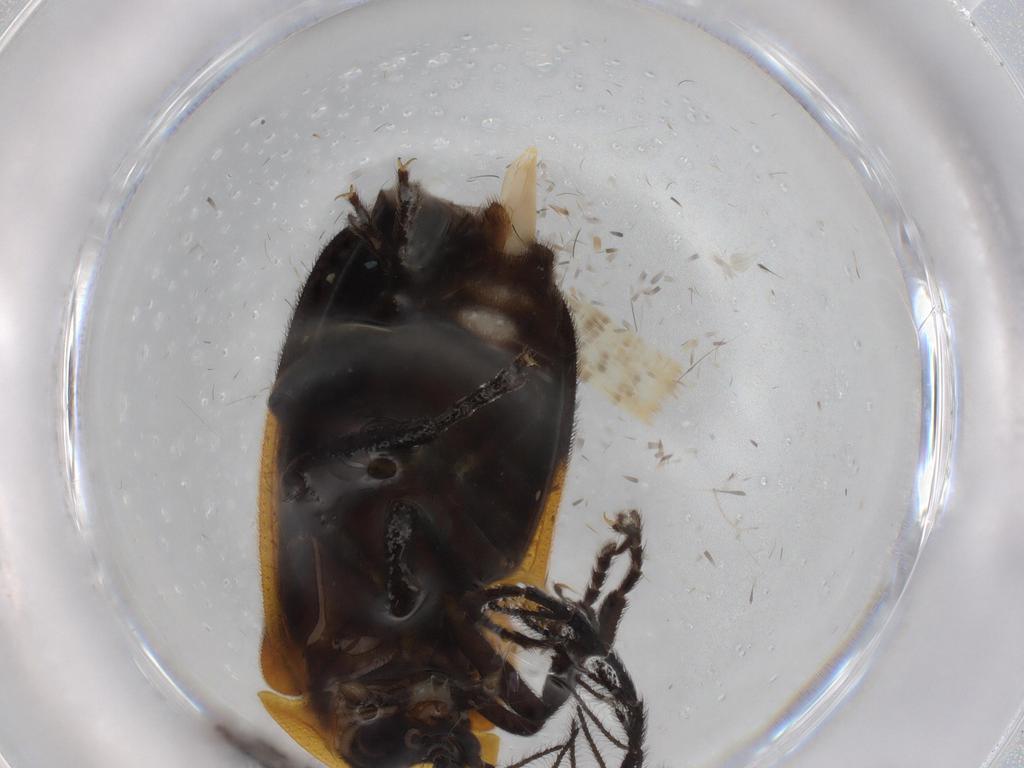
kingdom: Animalia
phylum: Arthropoda
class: Insecta
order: Coleoptera
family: Lampyridae
